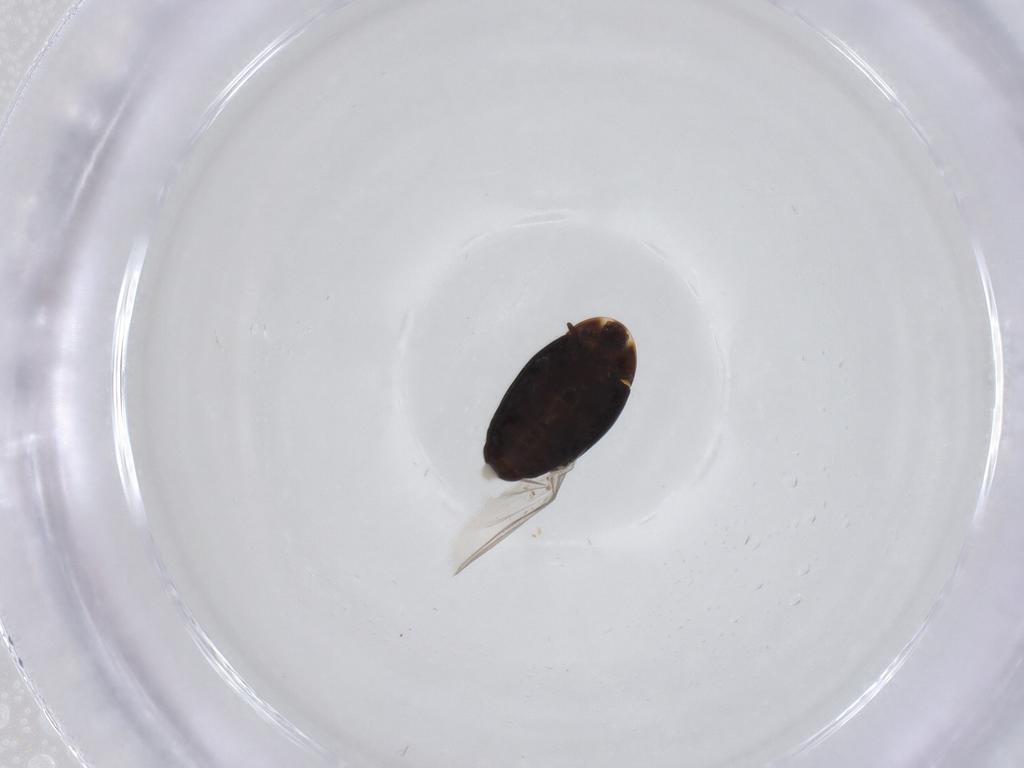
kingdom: Animalia
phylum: Arthropoda
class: Insecta
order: Coleoptera
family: Corylophidae
